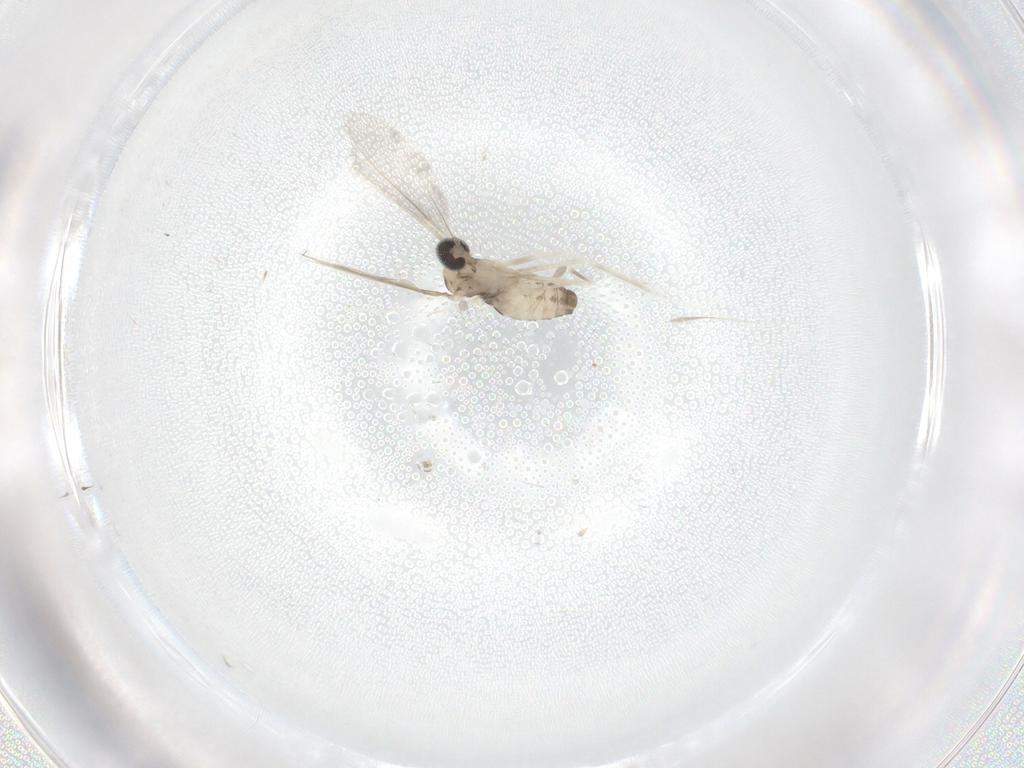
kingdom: Animalia
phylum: Arthropoda
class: Insecta
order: Diptera
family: Cecidomyiidae
